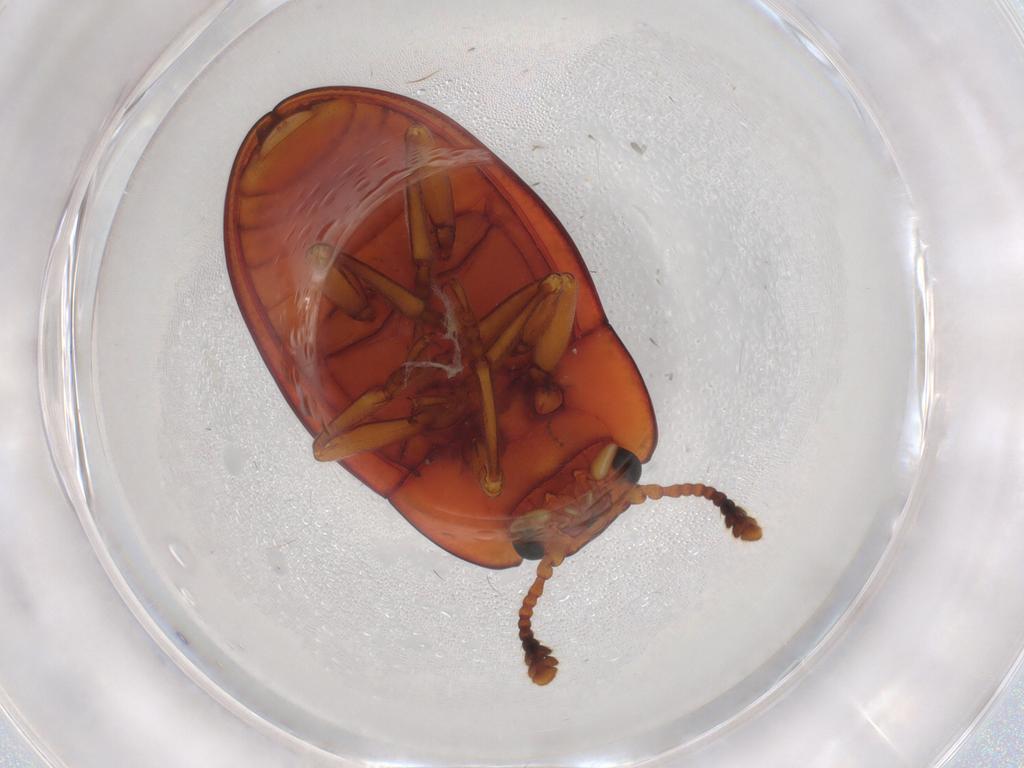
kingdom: Animalia
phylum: Arthropoda
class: Insecta
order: Coleoptera
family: Erotylidae
